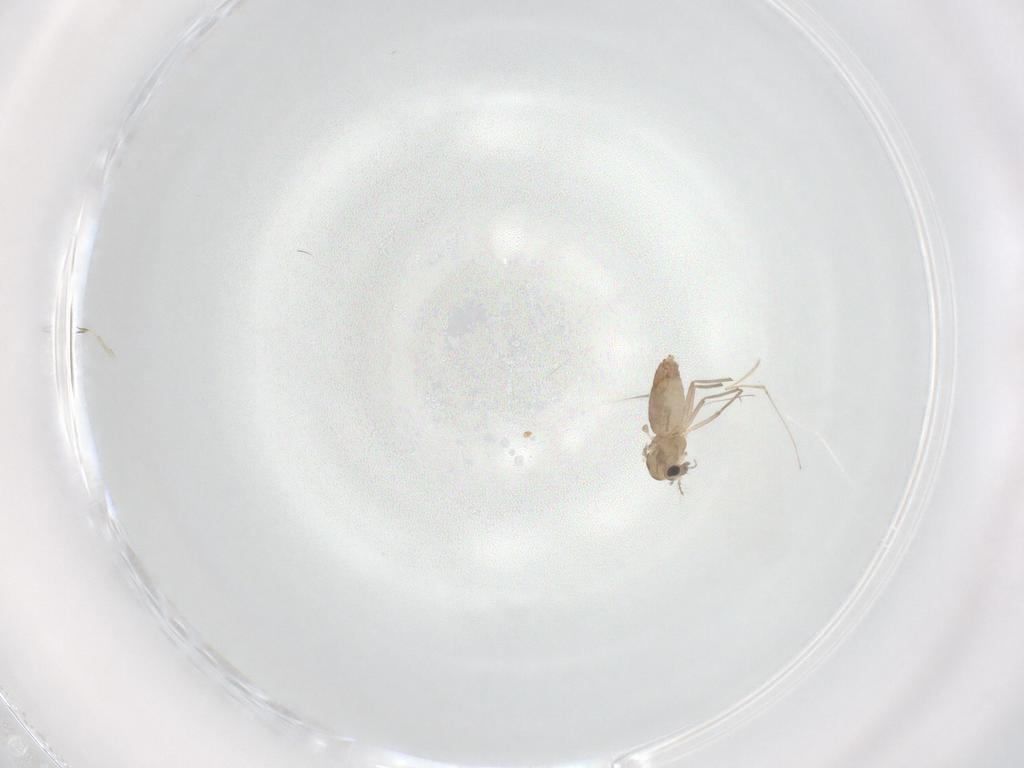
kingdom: Animalia
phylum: Arthropoda
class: Insecta
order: Diptera
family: Chironomidae
